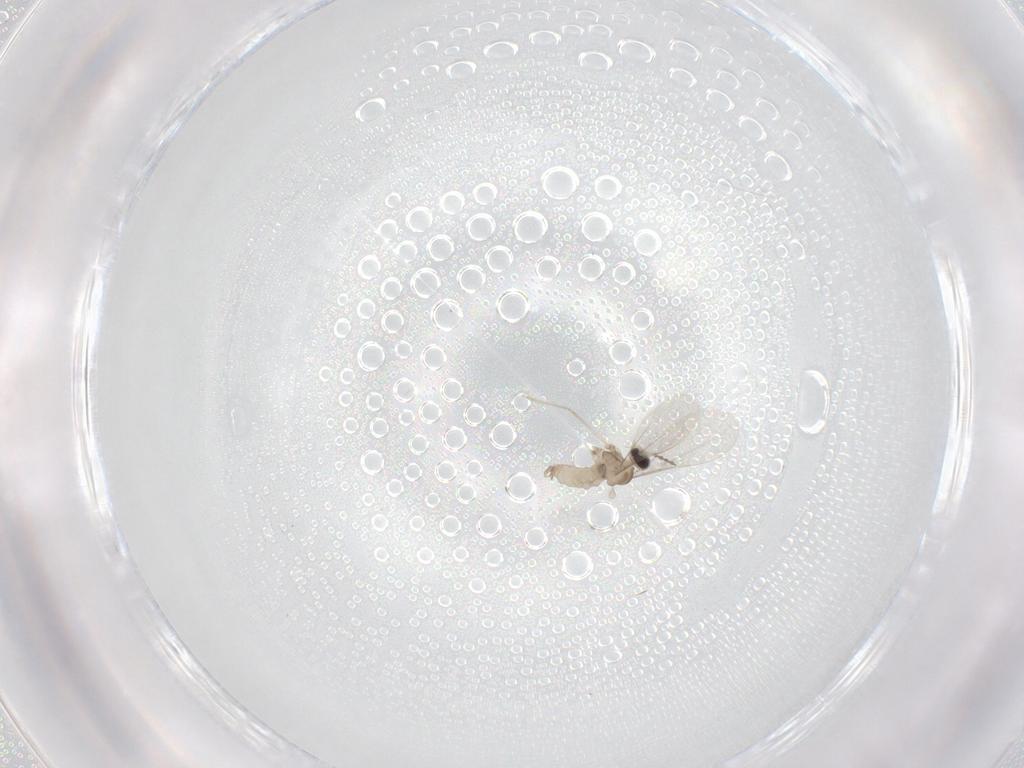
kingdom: Animalia
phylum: Arthropoda
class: Insecta
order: Diptera
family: Cecidomyiidae
